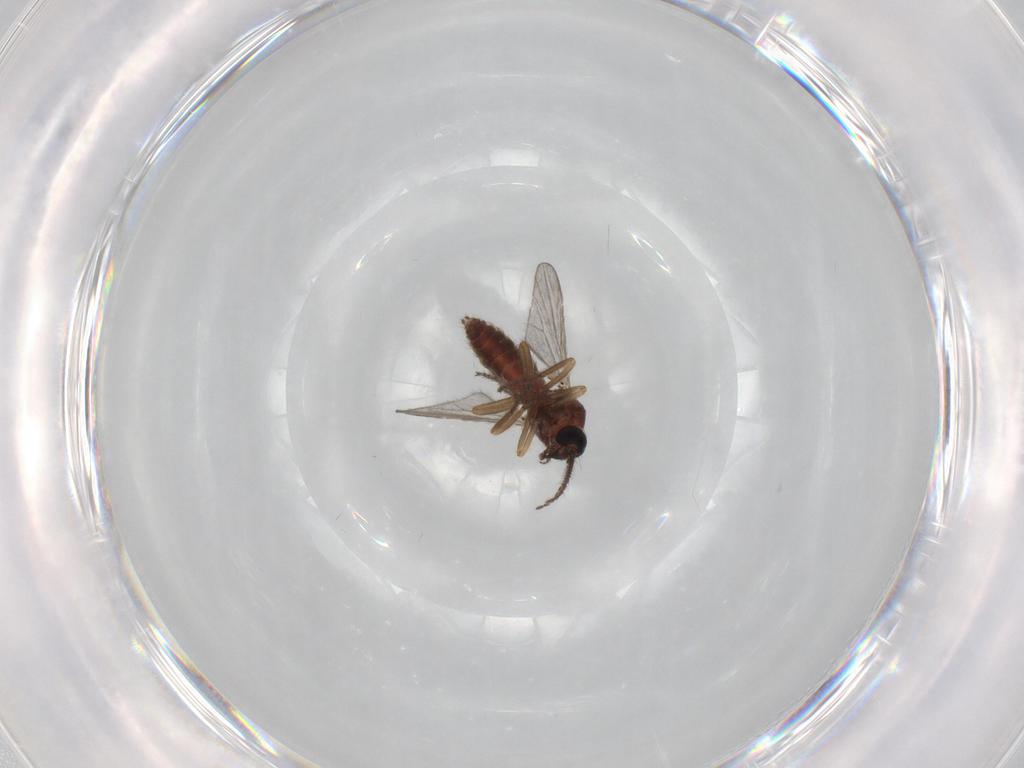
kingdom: Animalia
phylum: Arthropoda
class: Insecta
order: Diptera
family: Ceratopogonidae
